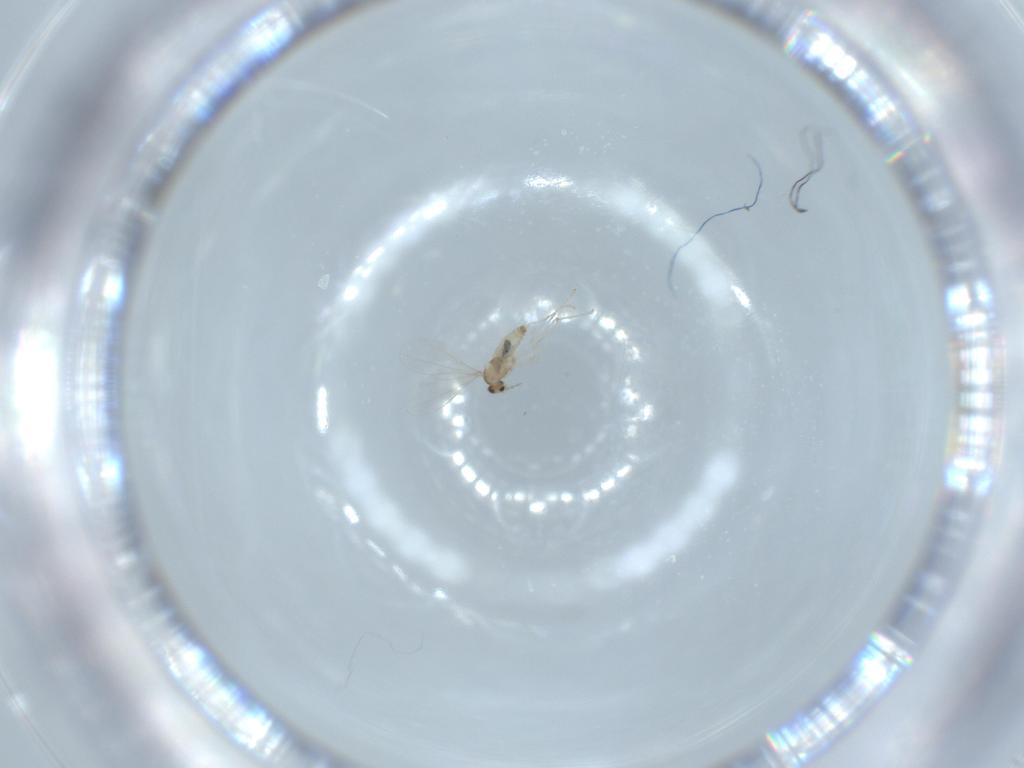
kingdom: Animalia
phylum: Arthropoda
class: Insecta
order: Diptera
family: Cecidomyiidae
